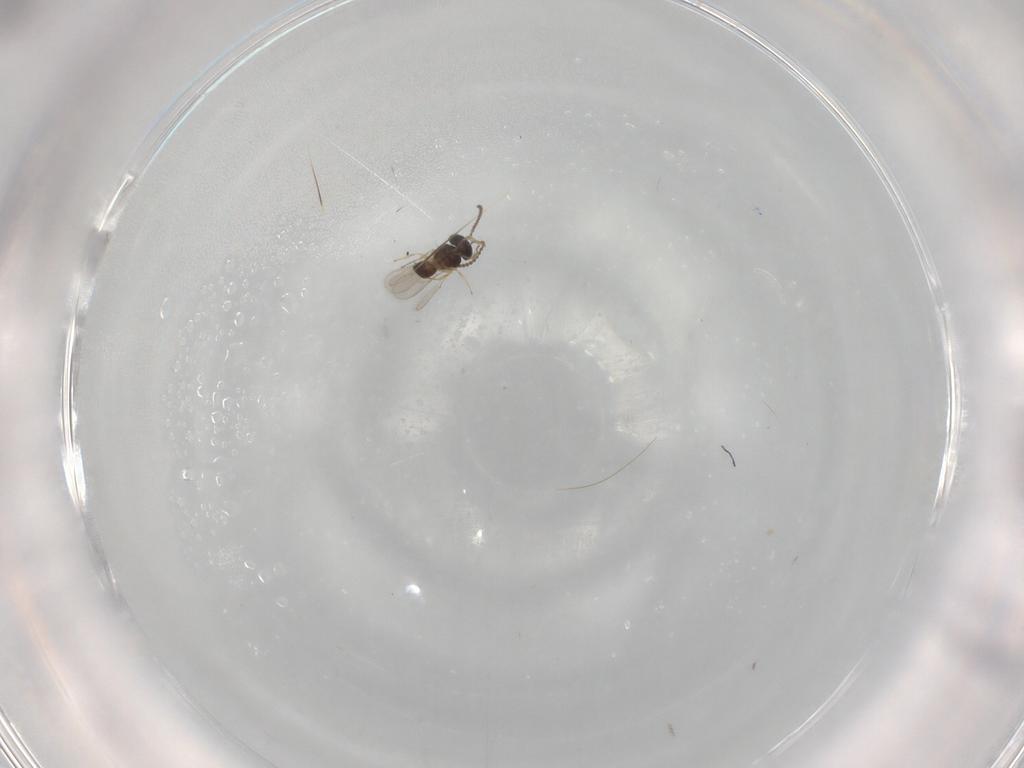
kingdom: Animalia
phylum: Arthropoda
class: Insecta
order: Hymenoptera
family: Scelionidae
